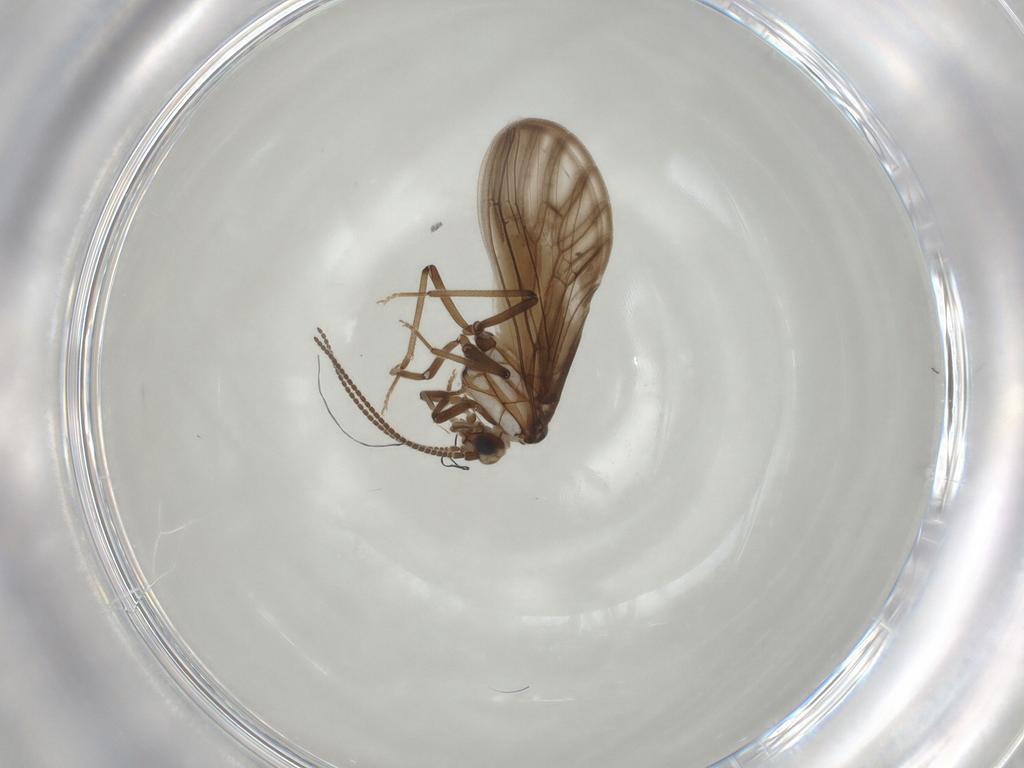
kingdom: Animalia
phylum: Arthropoda
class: Insecta
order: Neuroptera
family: Coniopterygidae
